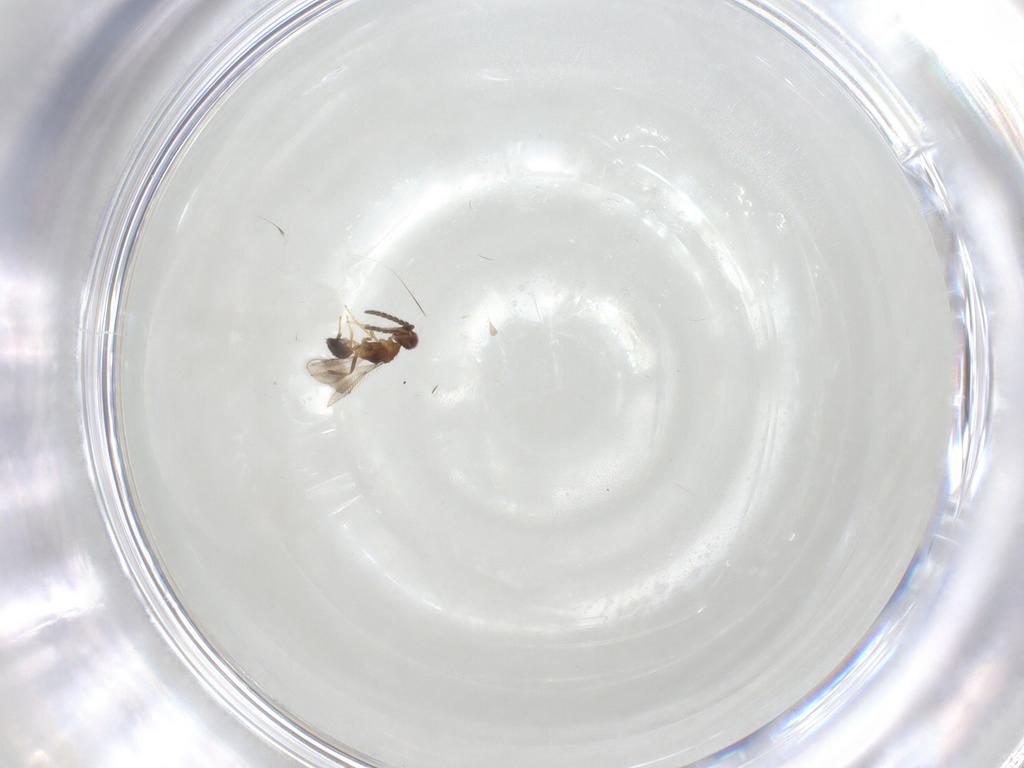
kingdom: Animalia
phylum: Arthropoda
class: Insecta
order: Hymenoptera
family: Pteromalidae
